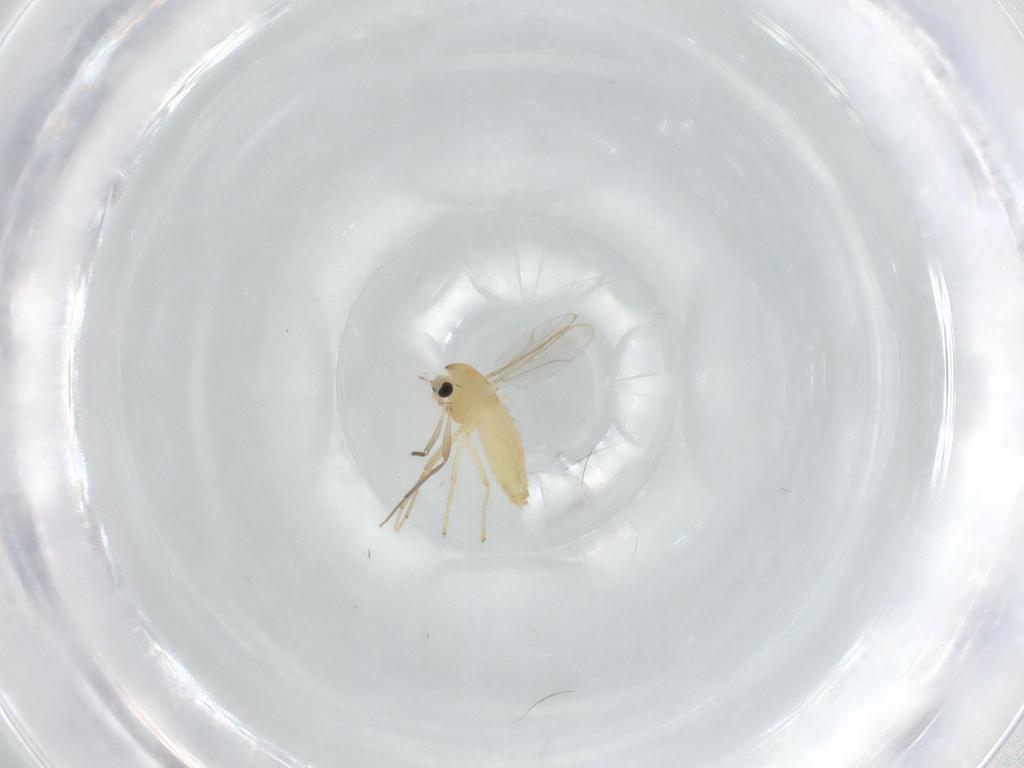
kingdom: Animalia
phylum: Arthropoda
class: Insecta
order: Diptera
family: Chironomidae
